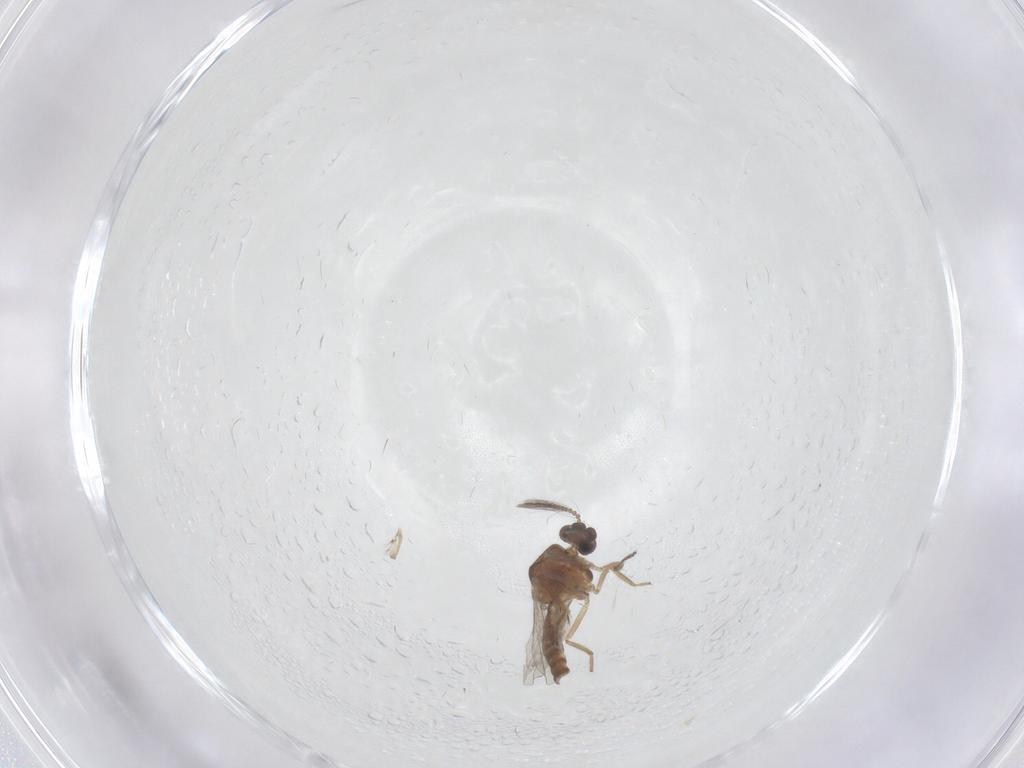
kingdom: Animalia
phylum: Arthropoda
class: Insecta
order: Diptera
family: Ceratopogonidae
